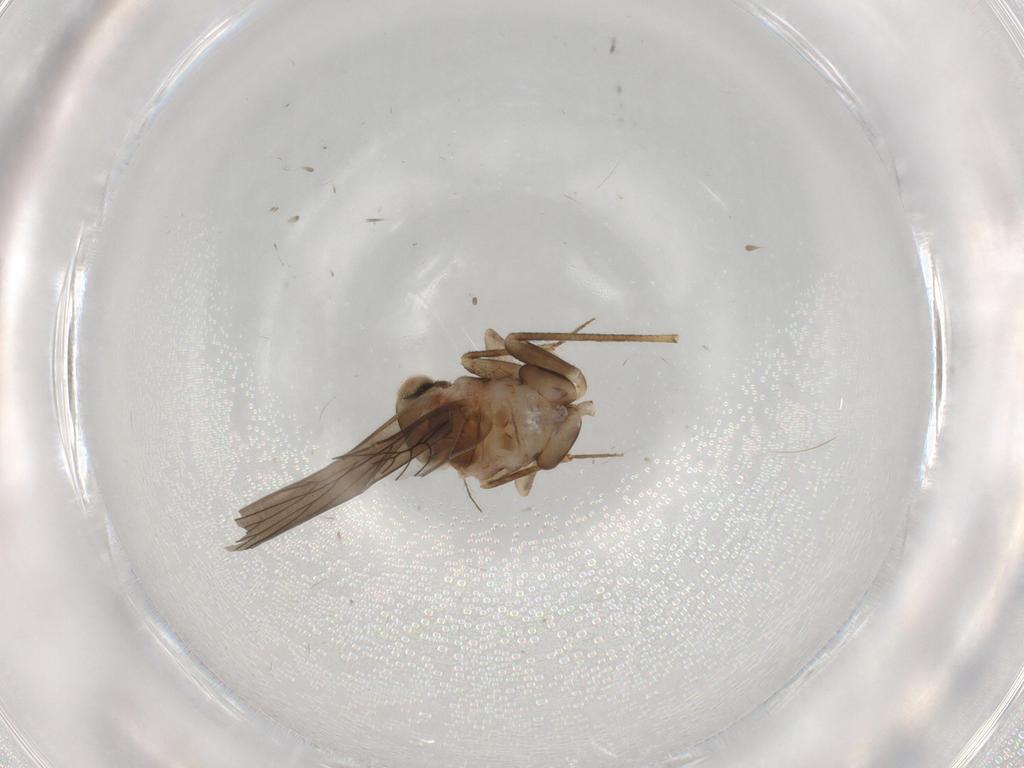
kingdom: Animalia
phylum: Arthropoda
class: Insecta
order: Psocodea
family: Lepidopsocidae
